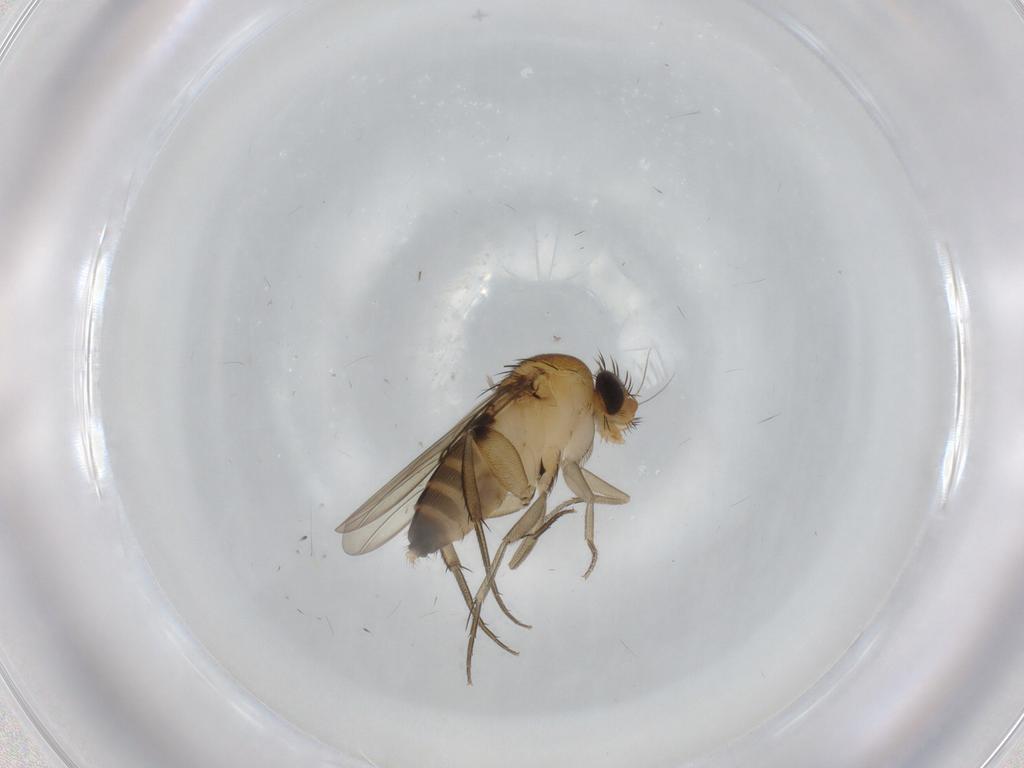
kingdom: Animalia
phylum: Arthropoda
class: Insecta
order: Diptera
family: Phoridae
